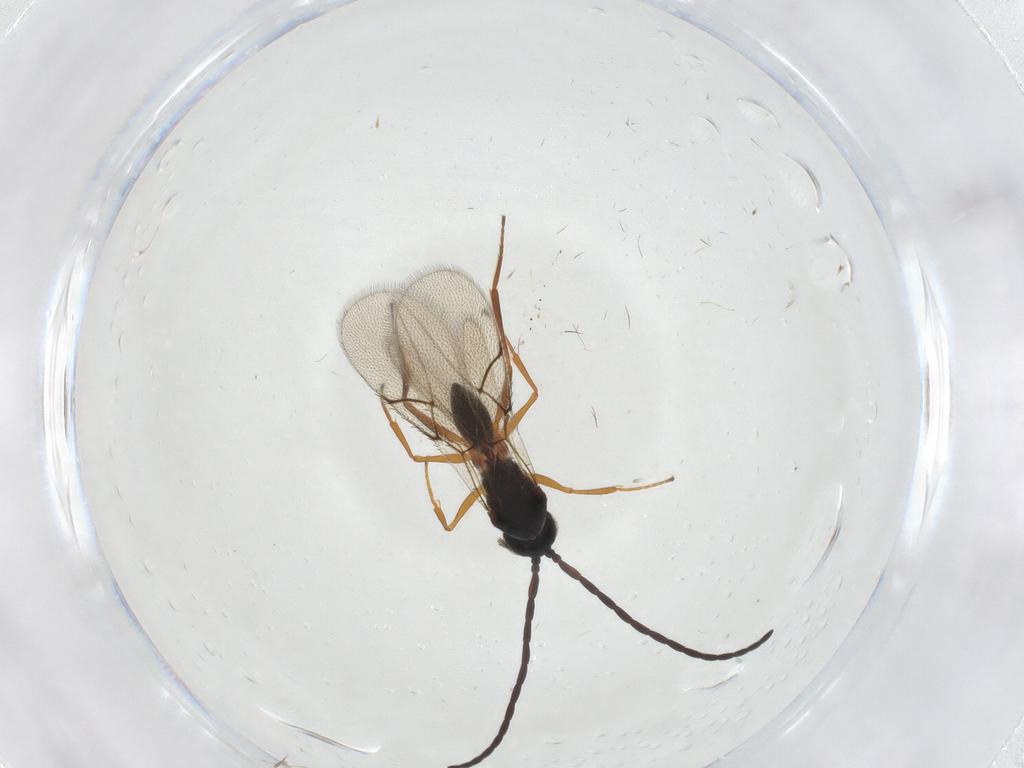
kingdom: Animalia
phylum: Arthropoda
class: Insecta
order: Hymenoptera
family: Figitidae
